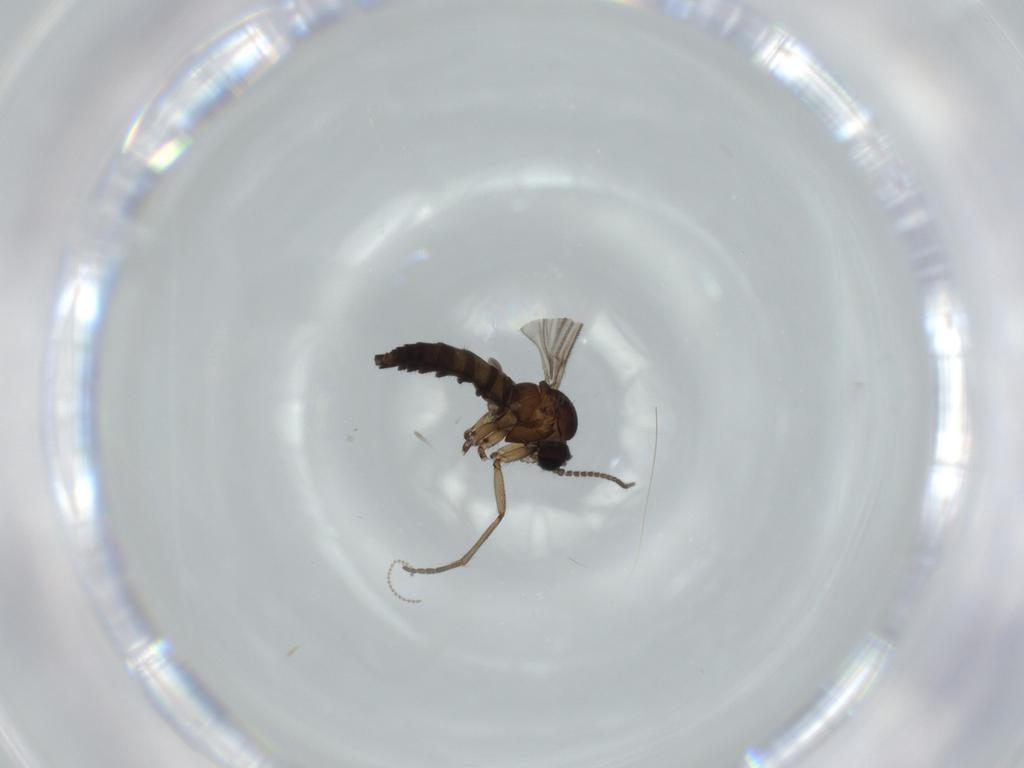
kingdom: Animalia
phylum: Arthropoda
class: Insecta
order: Diptera
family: Sciaridae
